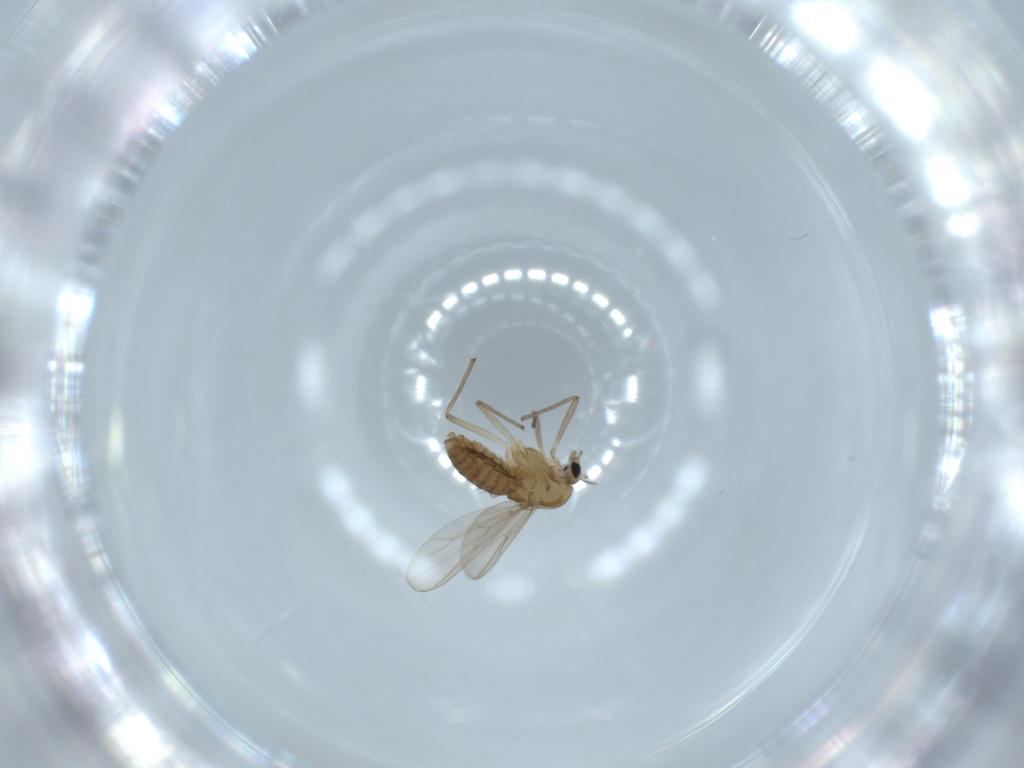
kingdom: Animalia
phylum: Arthropoda
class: Insecta
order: Diptera
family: Chironomidae
